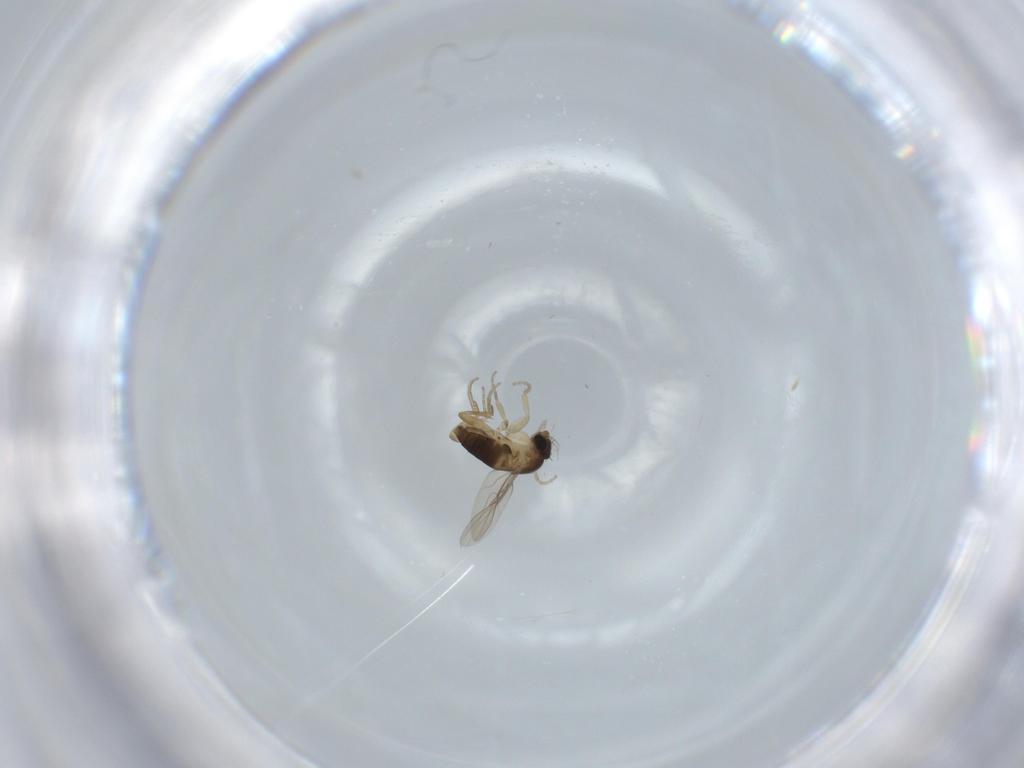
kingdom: Animalia
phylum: Arthropoda
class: Insecta
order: Diptera
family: Phoridae
